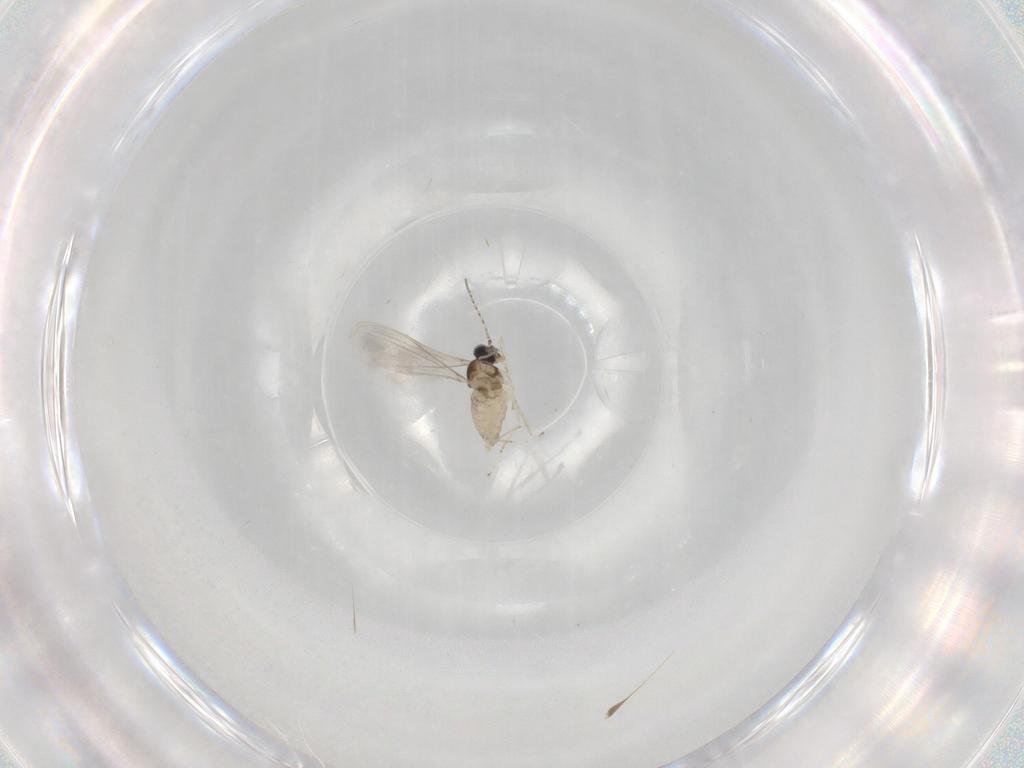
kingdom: Animalia
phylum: Arthropoda
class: Insecta
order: Diptera
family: Cecidomyiidae
